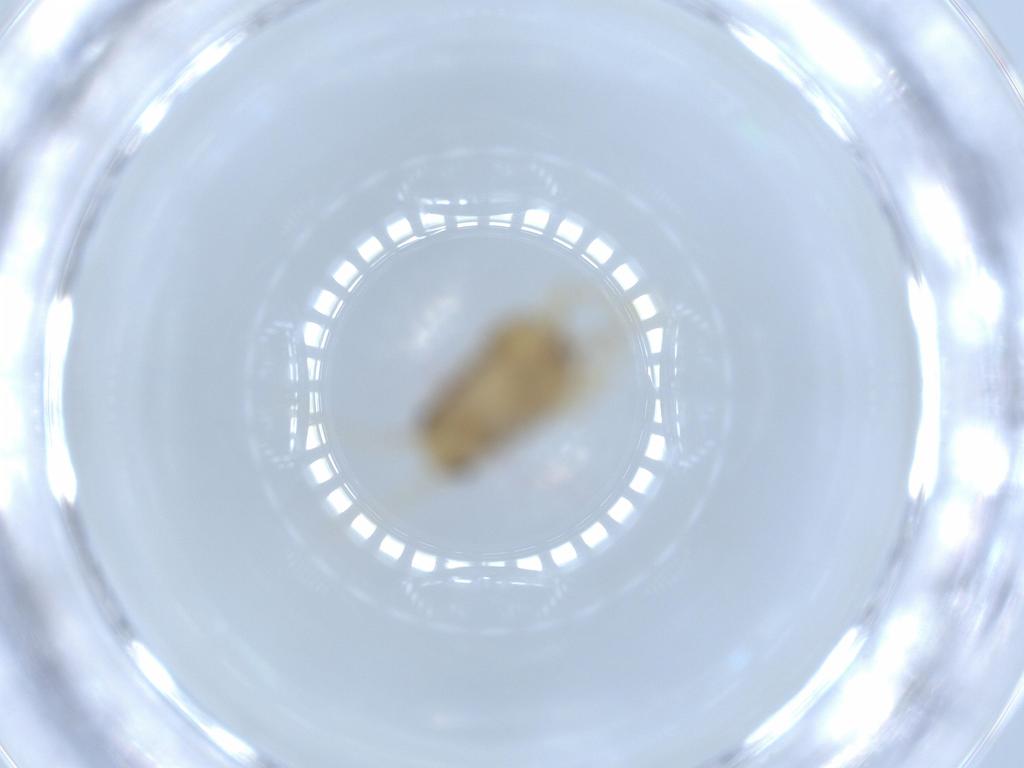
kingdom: Animalia
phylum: Arthropoda
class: Insecta
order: Blattodea
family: Ectobiidae
